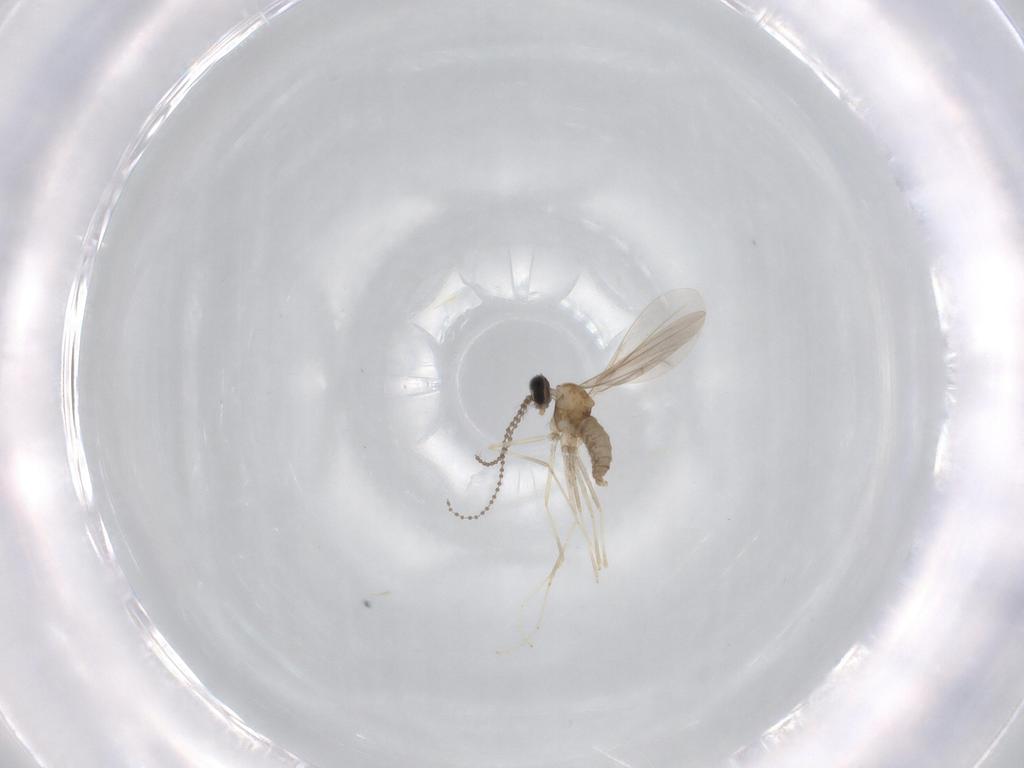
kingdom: Animalia
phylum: Arthropoda
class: Insecta
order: Diptera
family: Cecidomyiidae
